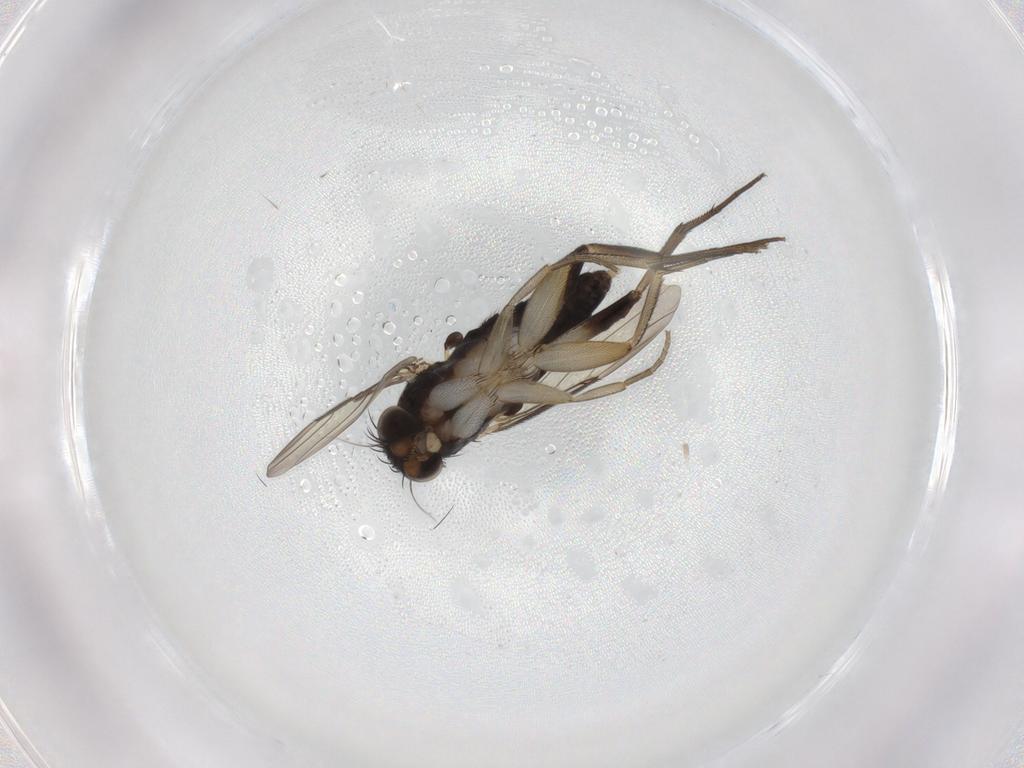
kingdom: Animalia
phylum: Arthropoda
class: Insecta
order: Diptera
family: Phoridae
